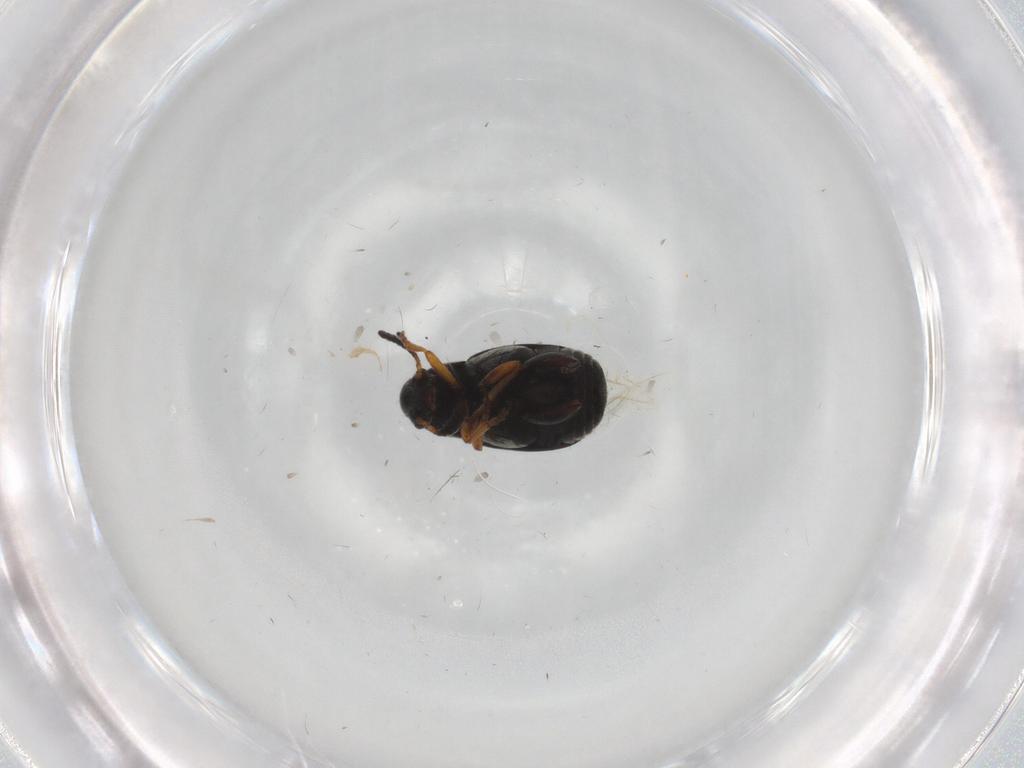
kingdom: Animalia
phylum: Arthropoda
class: Insecta
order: Coleoptera
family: Chrysomelidae
